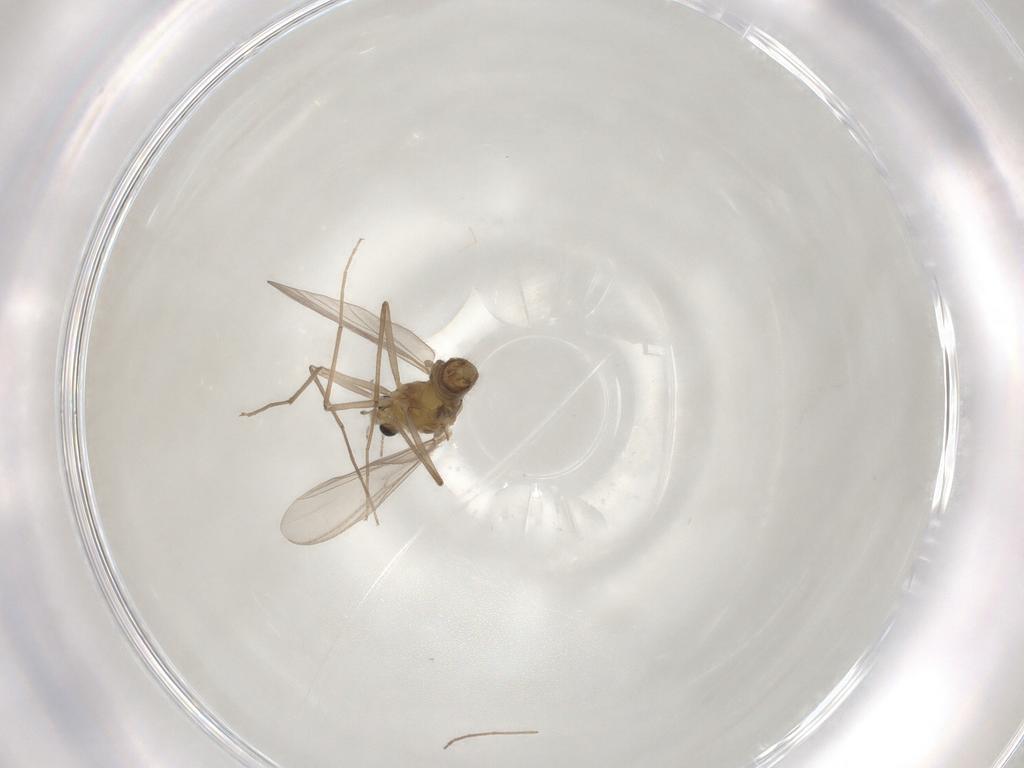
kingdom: Animalia
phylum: Arthropoda
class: Insecta
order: Diptera
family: Chironomidae
